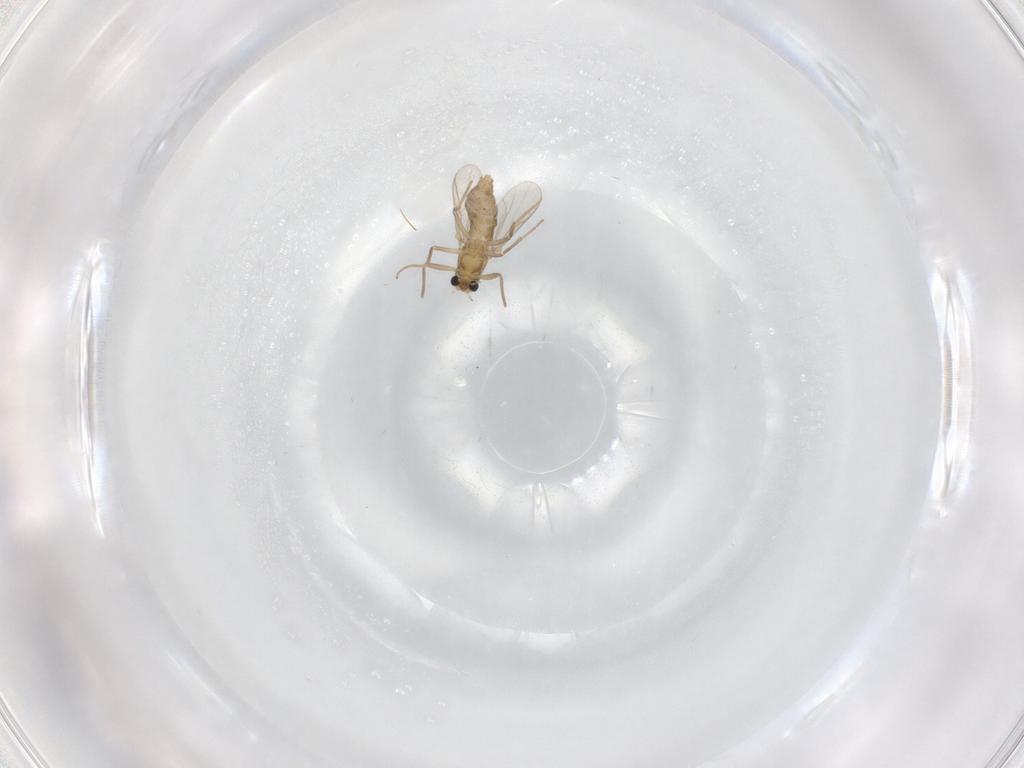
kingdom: Animalia
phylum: Arthropoda
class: Insecta
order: Diptera
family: Chironomidae
